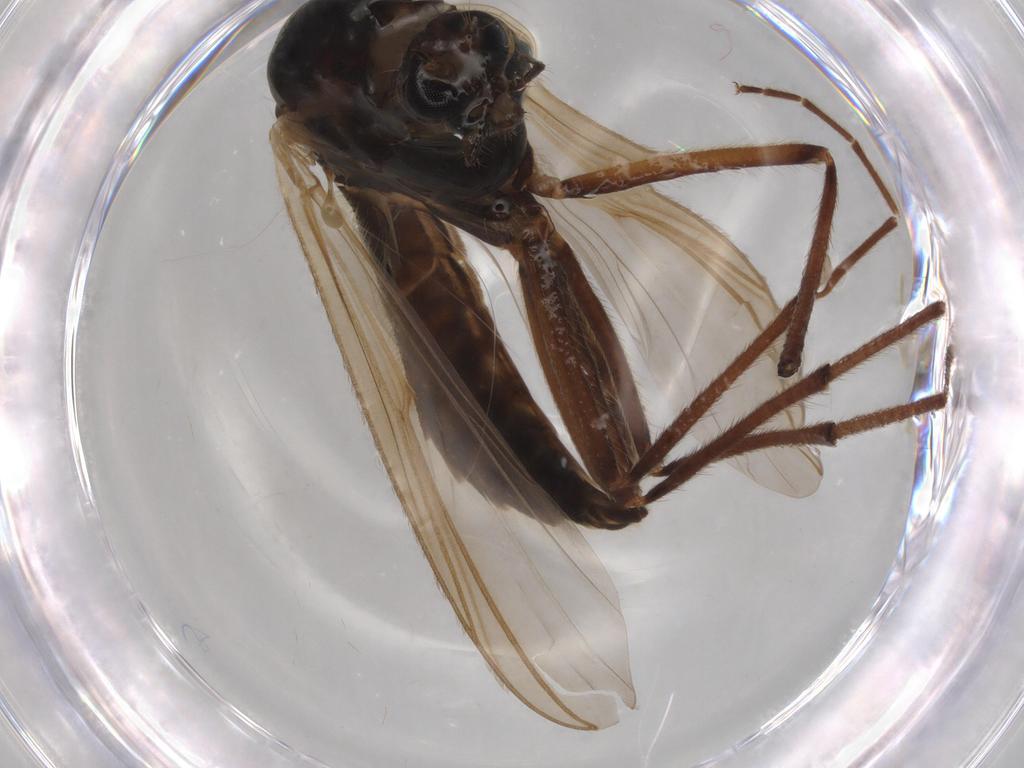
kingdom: Animalia
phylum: Arthropoda
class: Insecta
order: Diptera
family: Chironomidae
